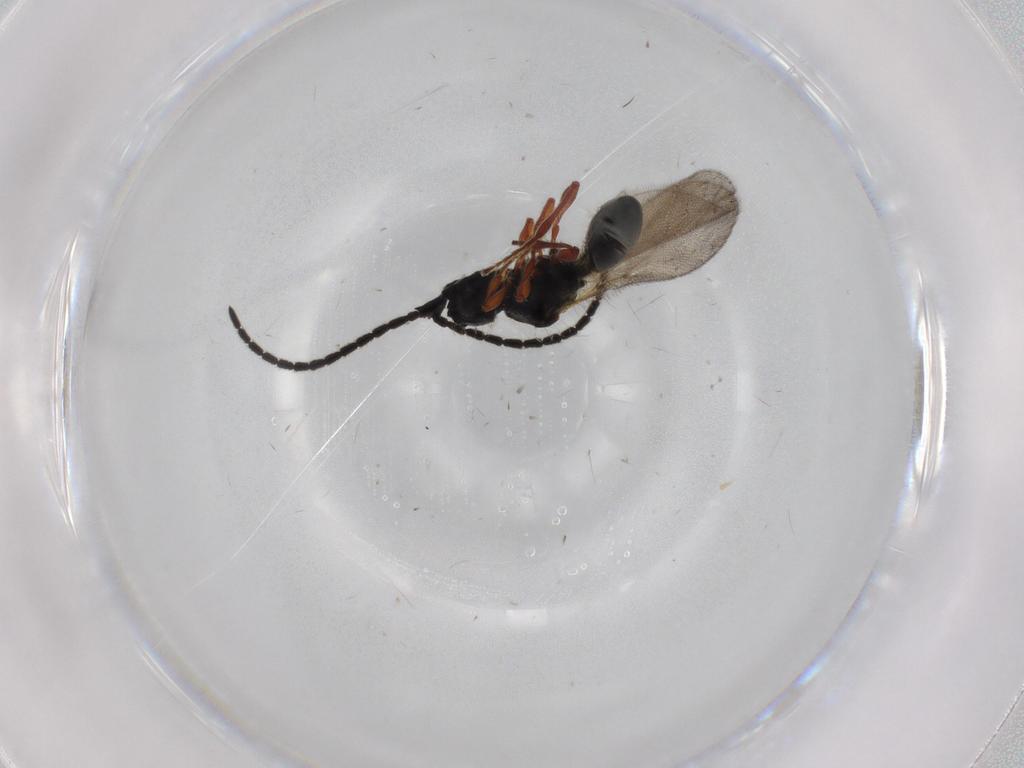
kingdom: Animalia
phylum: Arthropoda
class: Insecta
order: Hymenoptera
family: Diapriidae
